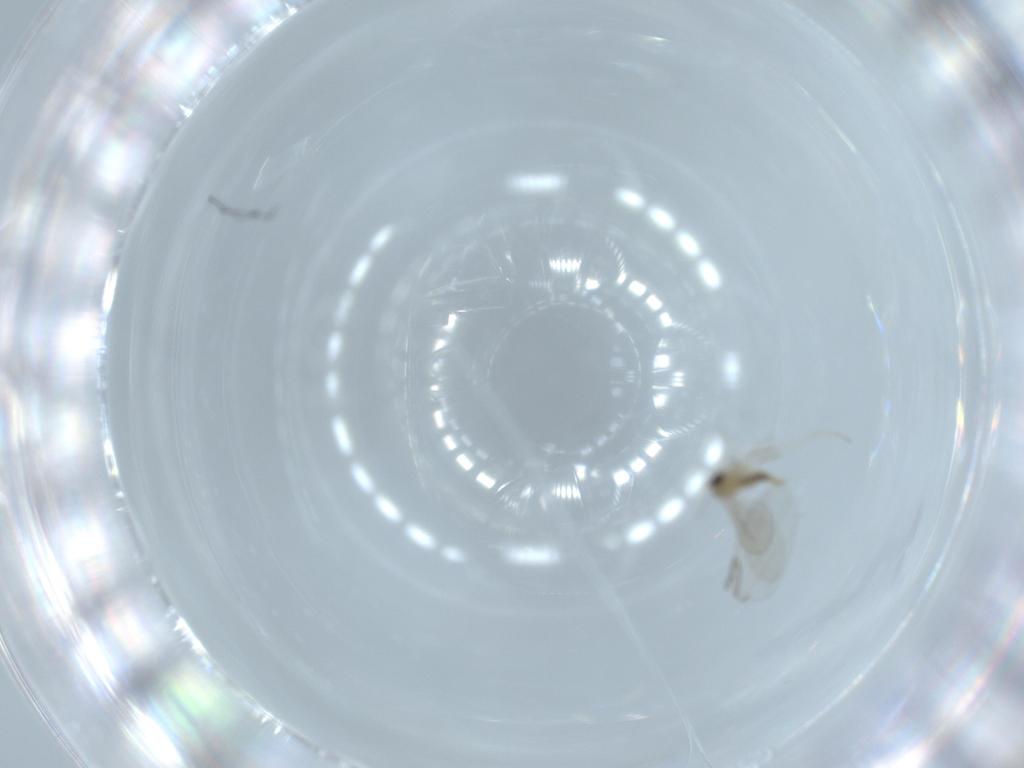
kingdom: Animalia
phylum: Arthropoda
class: Insecta
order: Diptera
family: Cecidomyiidae
